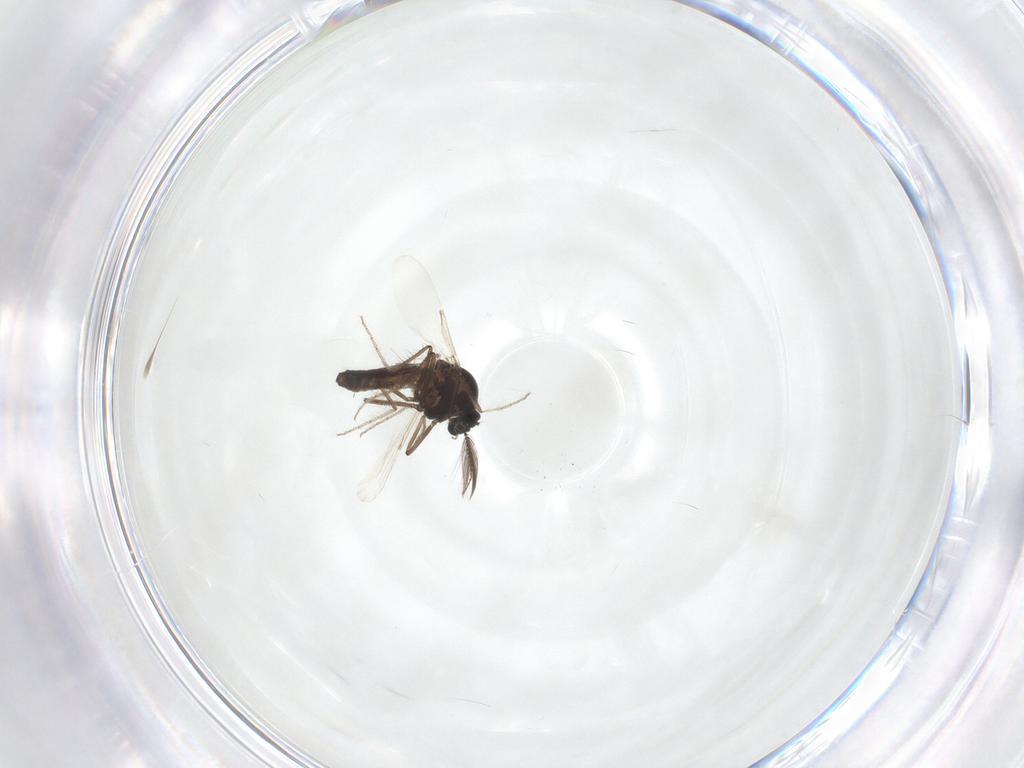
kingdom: Animalia
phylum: Arthropoda
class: Insecta
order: Diptera
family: Ceratopogonidae
